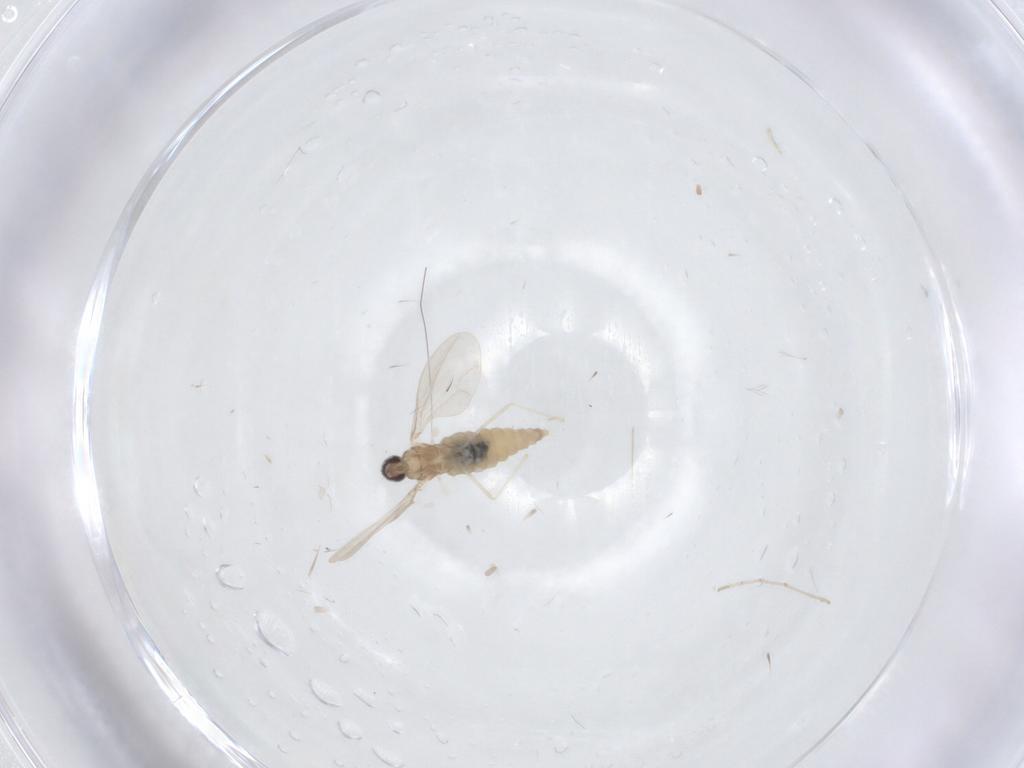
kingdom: Animalia
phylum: Arthropoda
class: Insecta
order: Diptera
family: Cecidomyiidae
